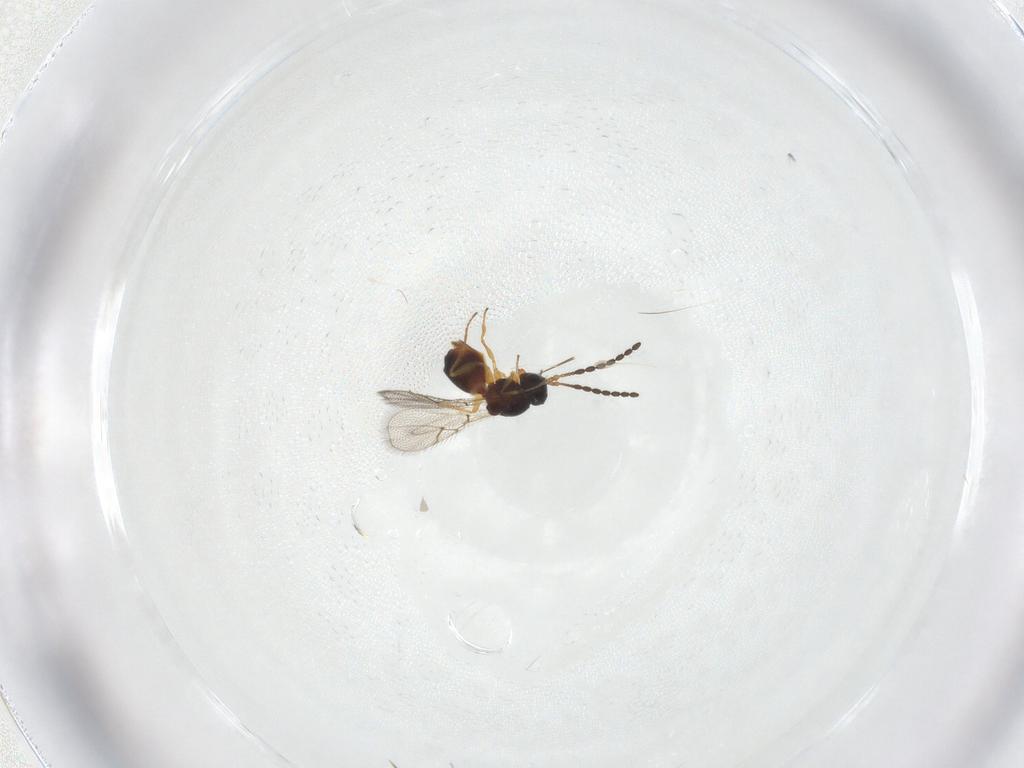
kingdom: Animalia
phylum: Arthropoda
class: Insecta
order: Hymenoptera
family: Figitidae
